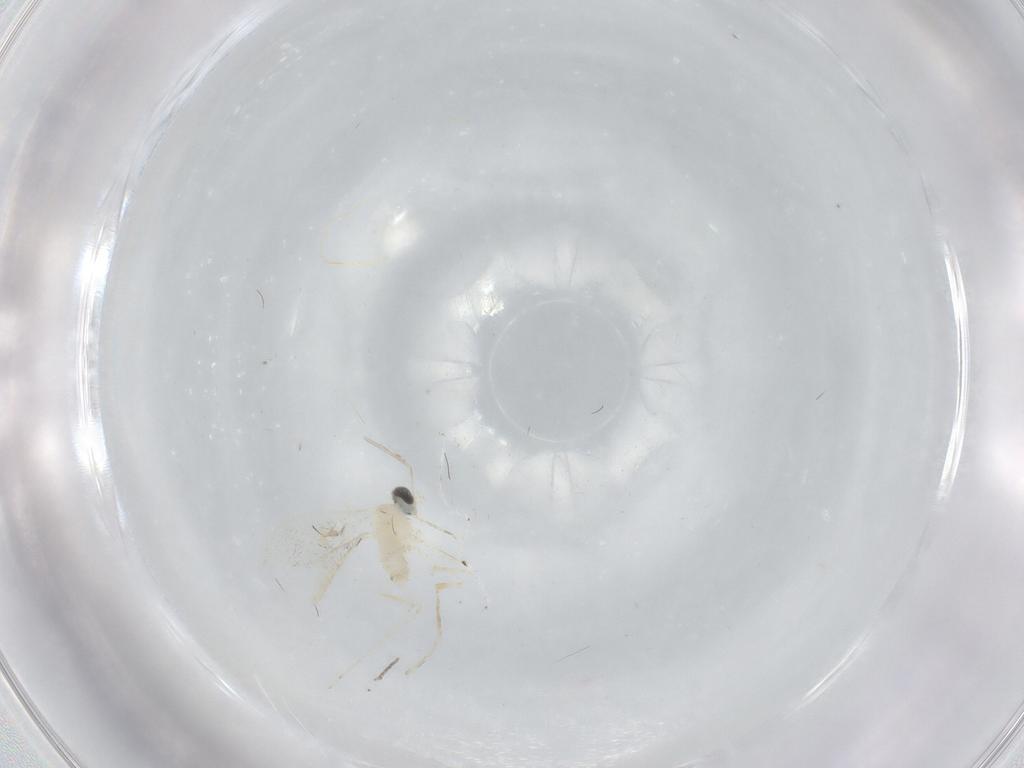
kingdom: Animalia
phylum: Arthropoda
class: Insecta
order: Diptera
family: Cecidomyiidae
